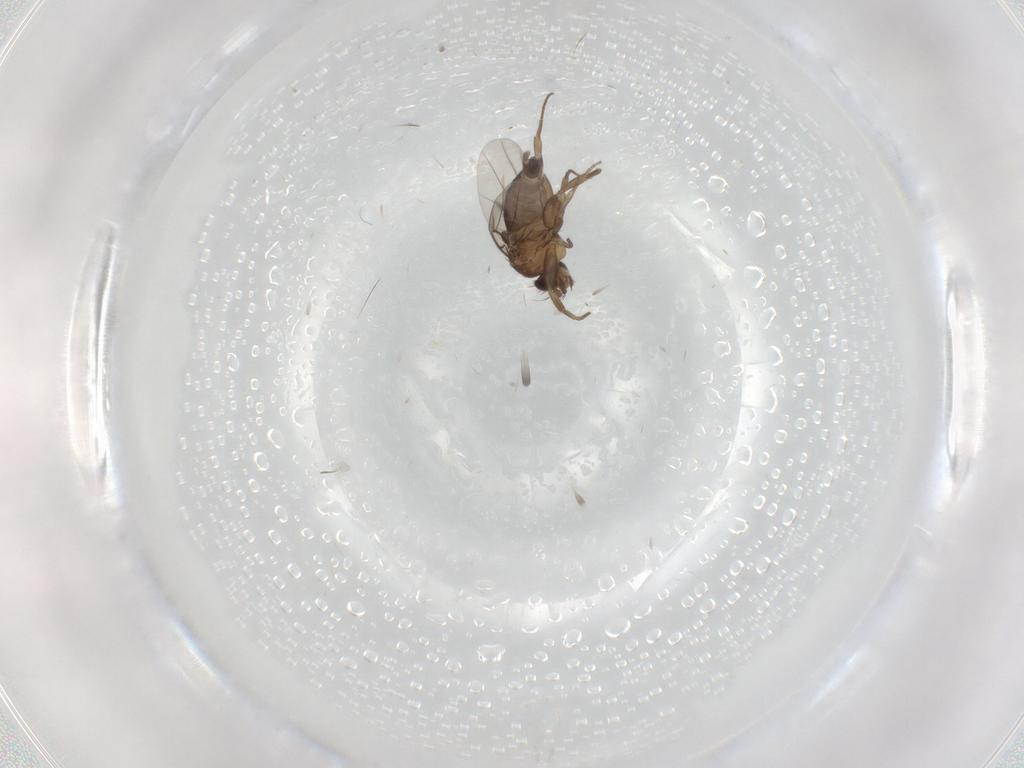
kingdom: Animalia
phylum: Arthropoda
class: Insecta
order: Diptera
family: Phoridae
